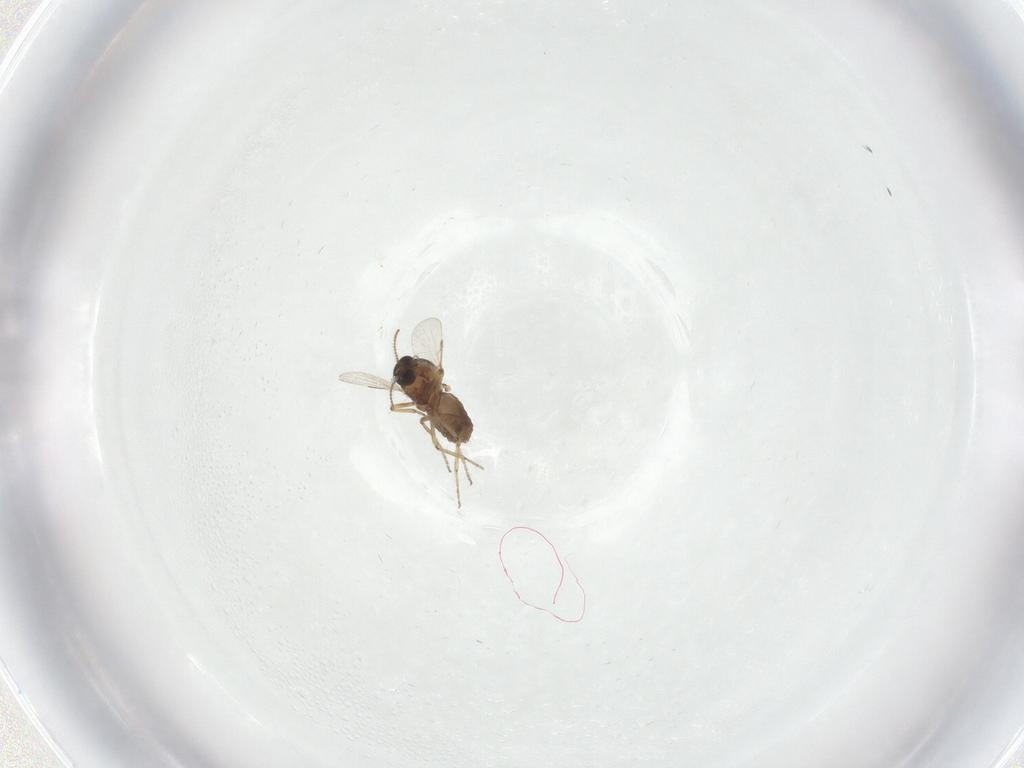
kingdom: Animalia
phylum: Arthropoda
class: Insecta
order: Diptera
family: Ceratopogonidae
